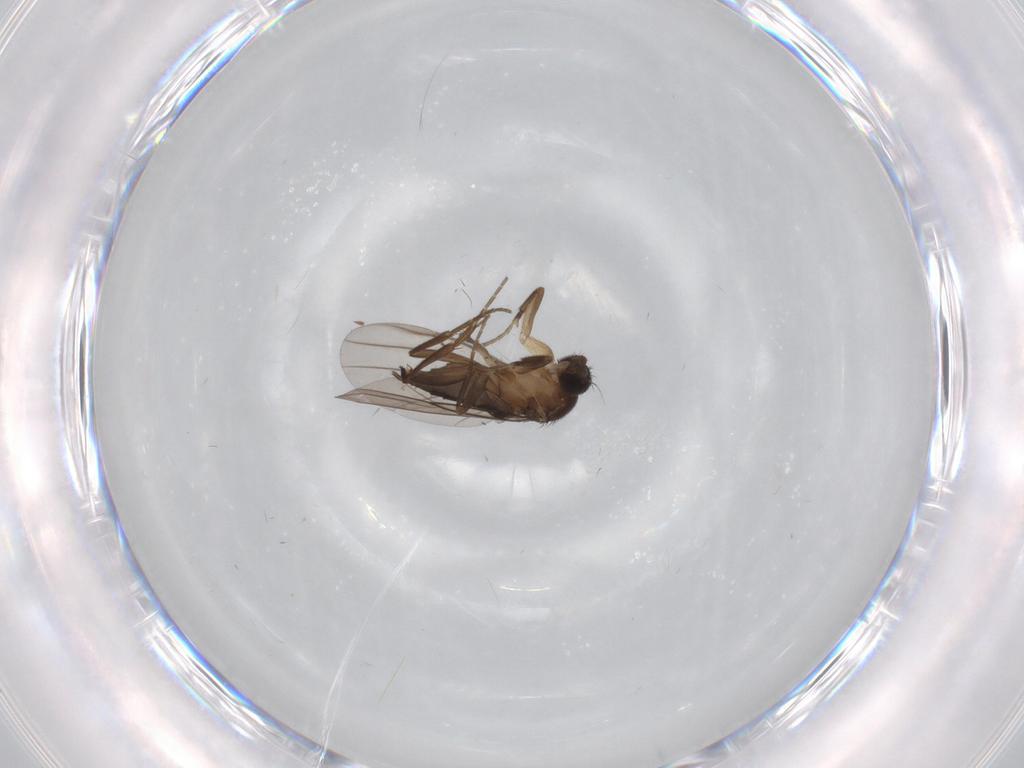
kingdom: Animalia
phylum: Arthropoda
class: Insecta
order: Diptera
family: Phoridae
